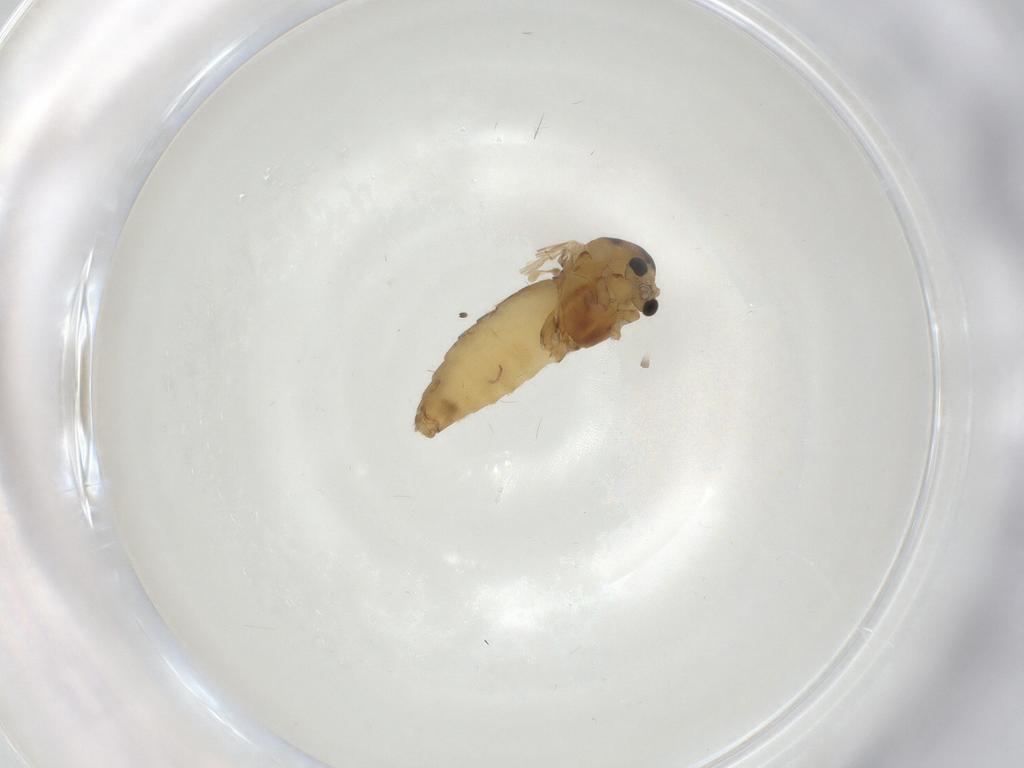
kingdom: Animalia
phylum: Arthropoda
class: Insecta
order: Diptera
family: Chironomidae
